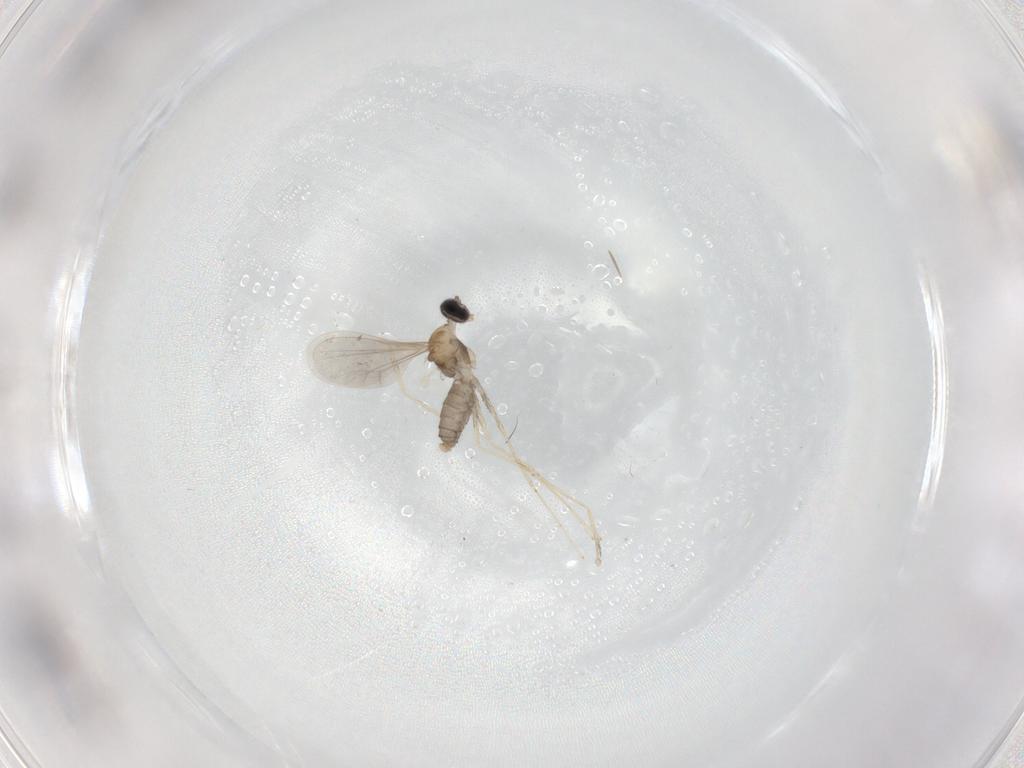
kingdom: Animalia
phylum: Arthropoda
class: Insecta
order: Diptera
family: Cecidomyiidae
